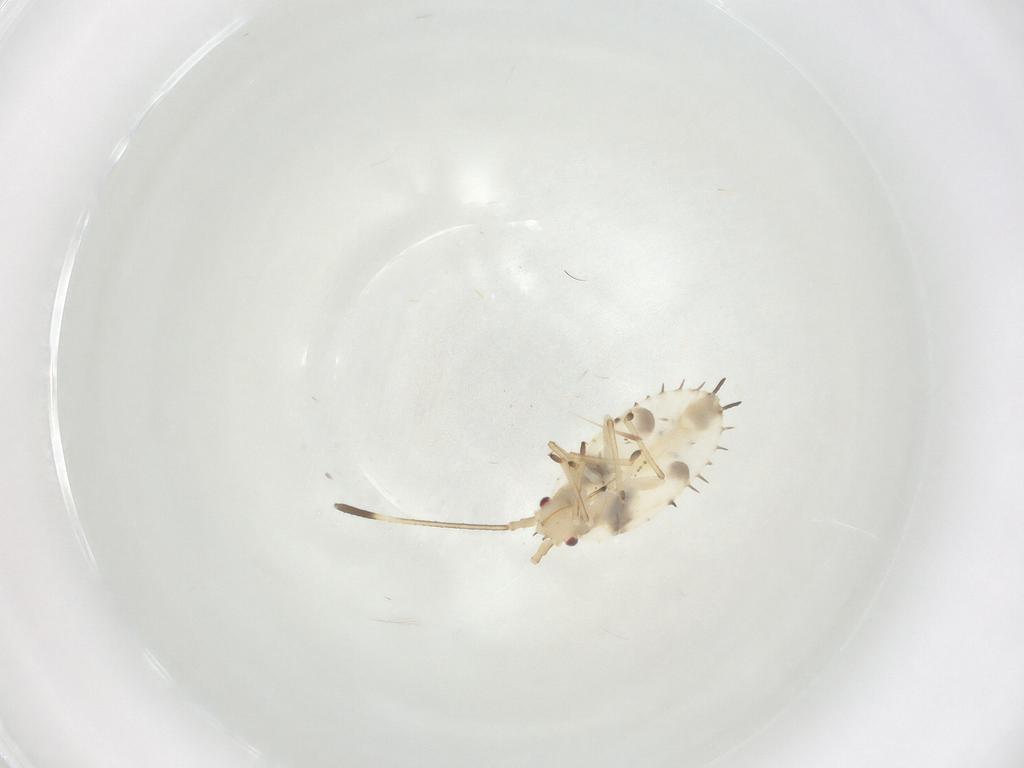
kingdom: Animalia
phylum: Arthropoda
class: Insecta
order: Hemiptera
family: Tingidae
